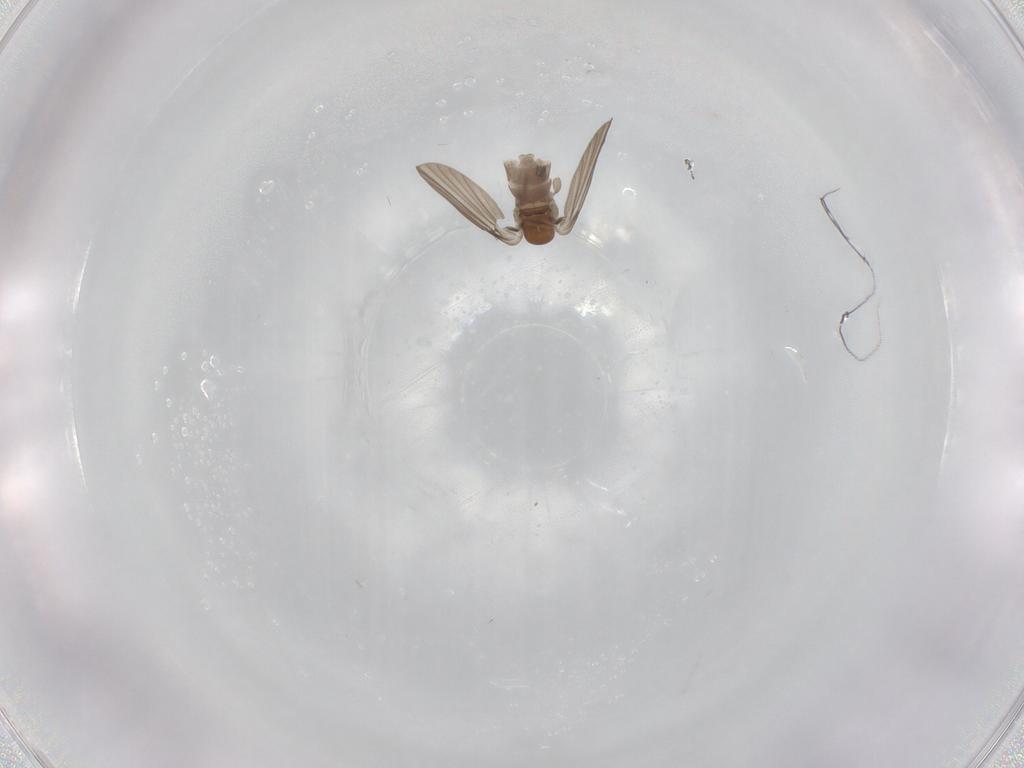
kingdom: Animalia
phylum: Arthropoda
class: Insecta
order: Diptera
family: Cecidomyiidae
